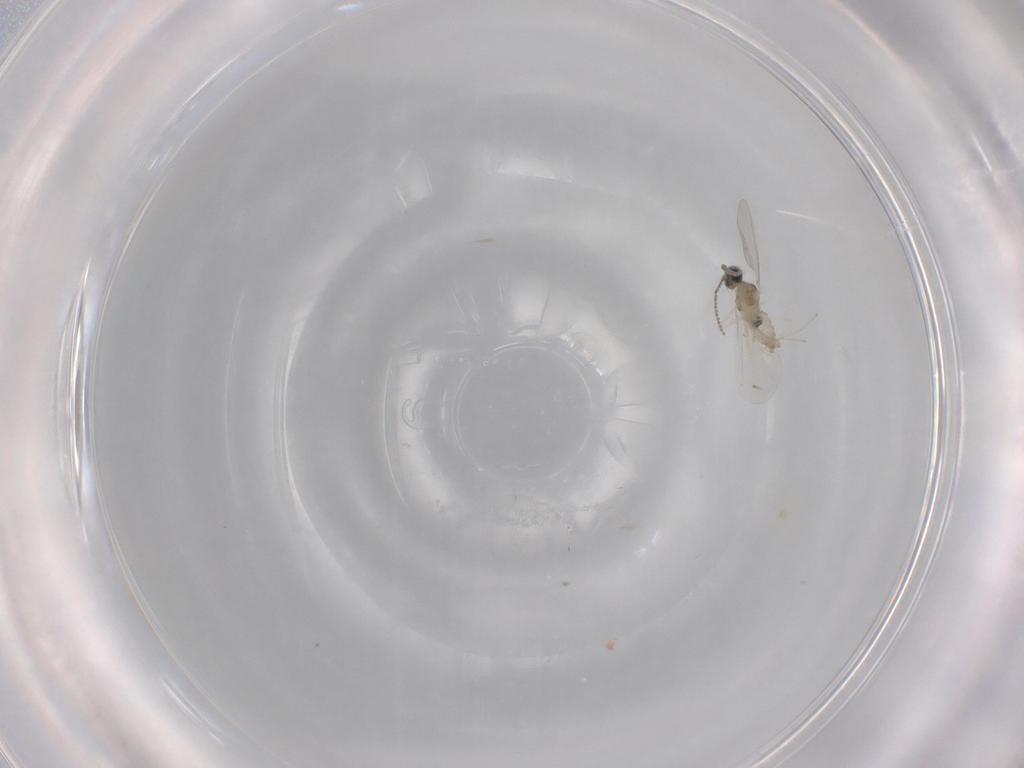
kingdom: Animalia
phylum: Arthropoda
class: Insecta
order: Diptera
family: Cecidomyiidae
